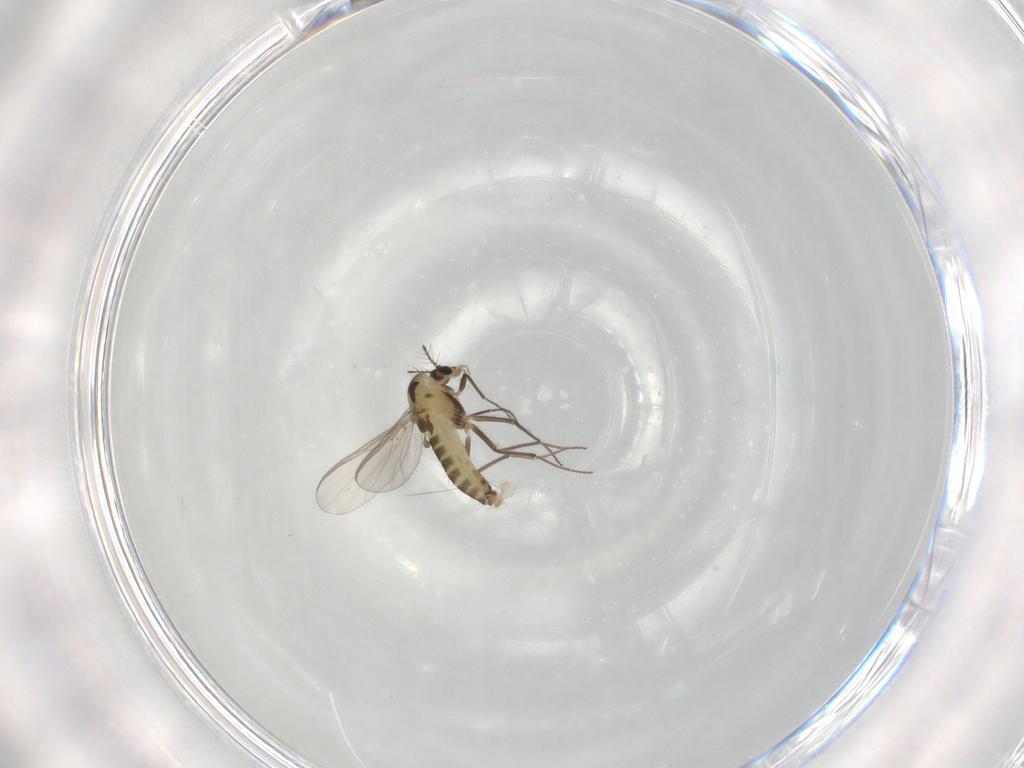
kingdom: Animalia
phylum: Arthropoda
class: Insecta
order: Diptera
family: Chironomidae
